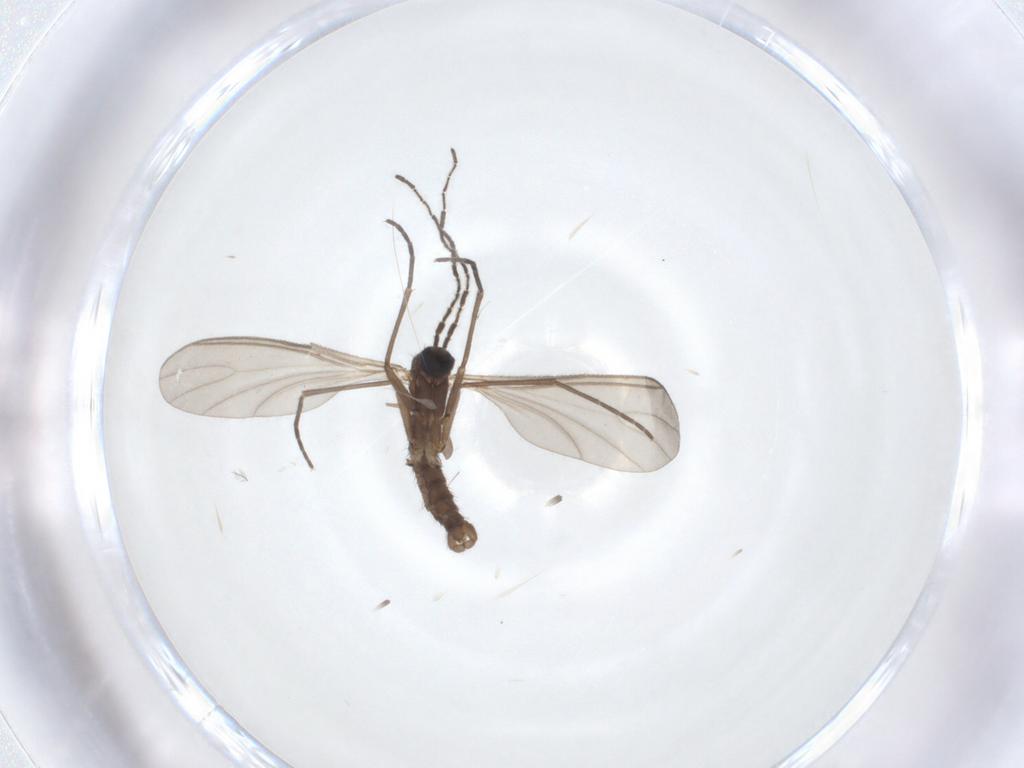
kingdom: Animalia
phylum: Arthropoda
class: Insecta
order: Diptera
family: Sciaridae
